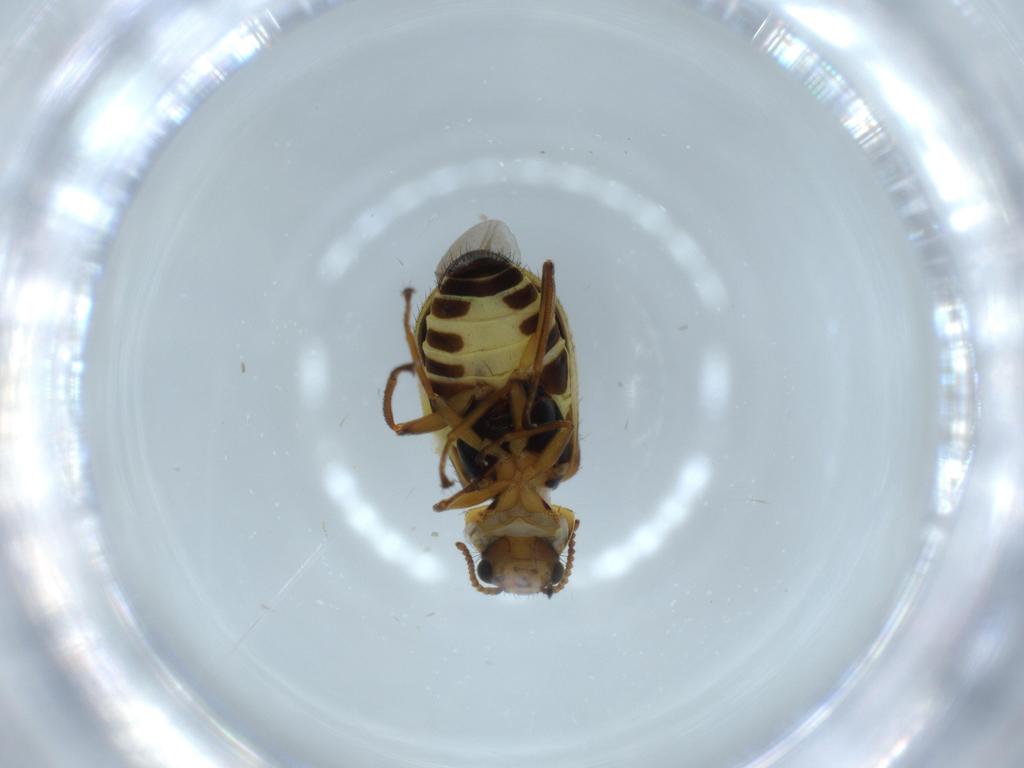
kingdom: Animalia
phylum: Arthropoda
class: Insecta
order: Coleoptera
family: Melyridae
